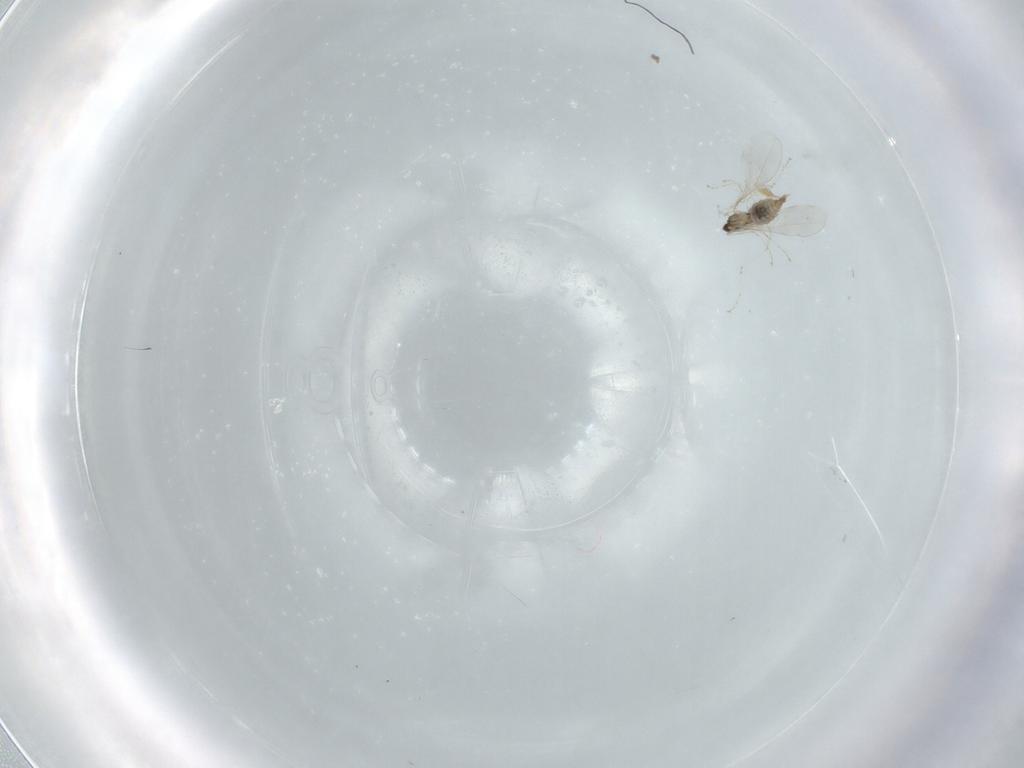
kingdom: Animalia
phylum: Arthropoda
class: Insecta
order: Diptera
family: Cecidomyiidae
